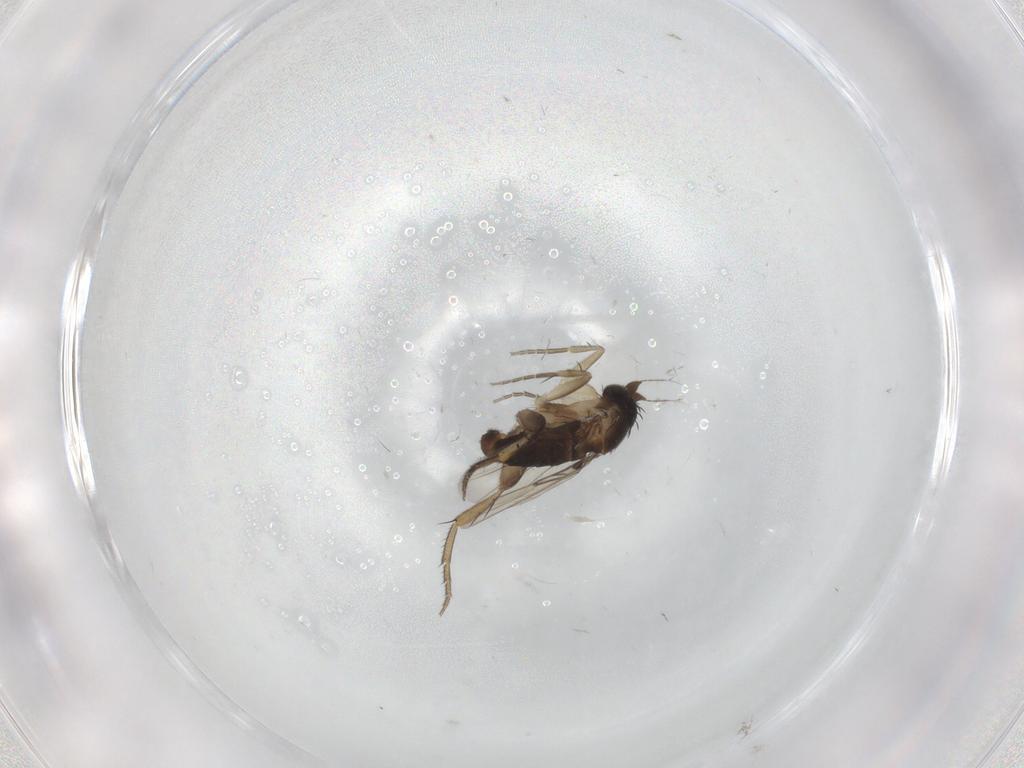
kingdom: Animalia
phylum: Arthropoda
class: Insecta
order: Diptera
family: Phoridae
